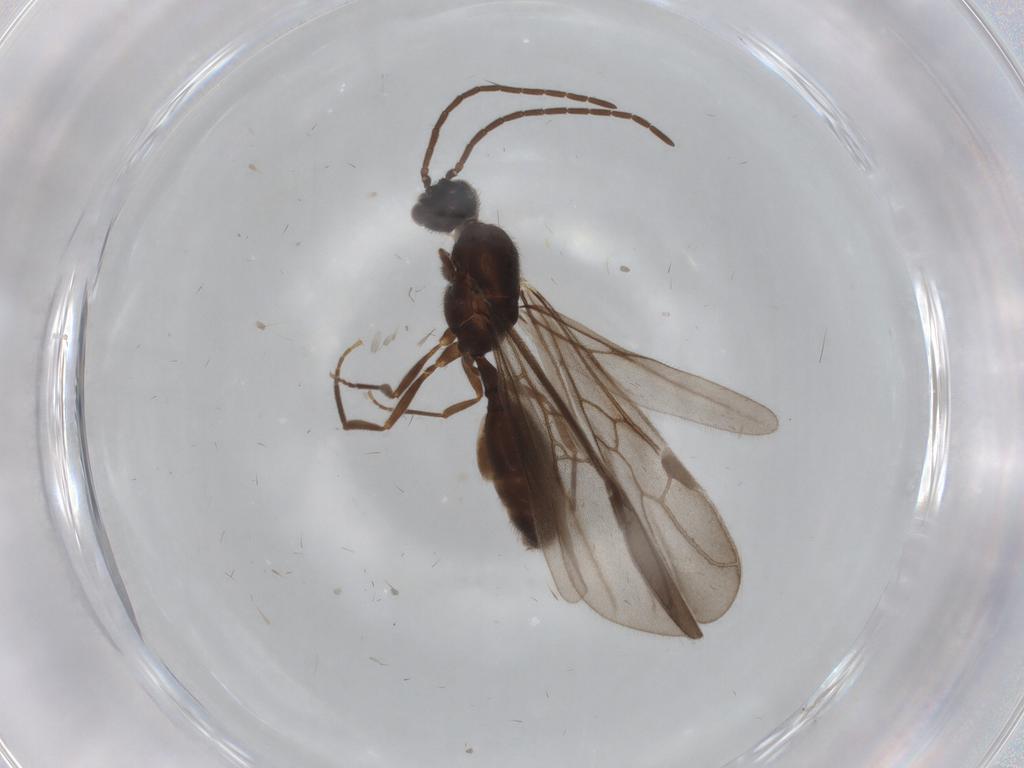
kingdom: Animalia
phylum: Arthropoda
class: Insecta
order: Hymenoptera
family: Formicidae
